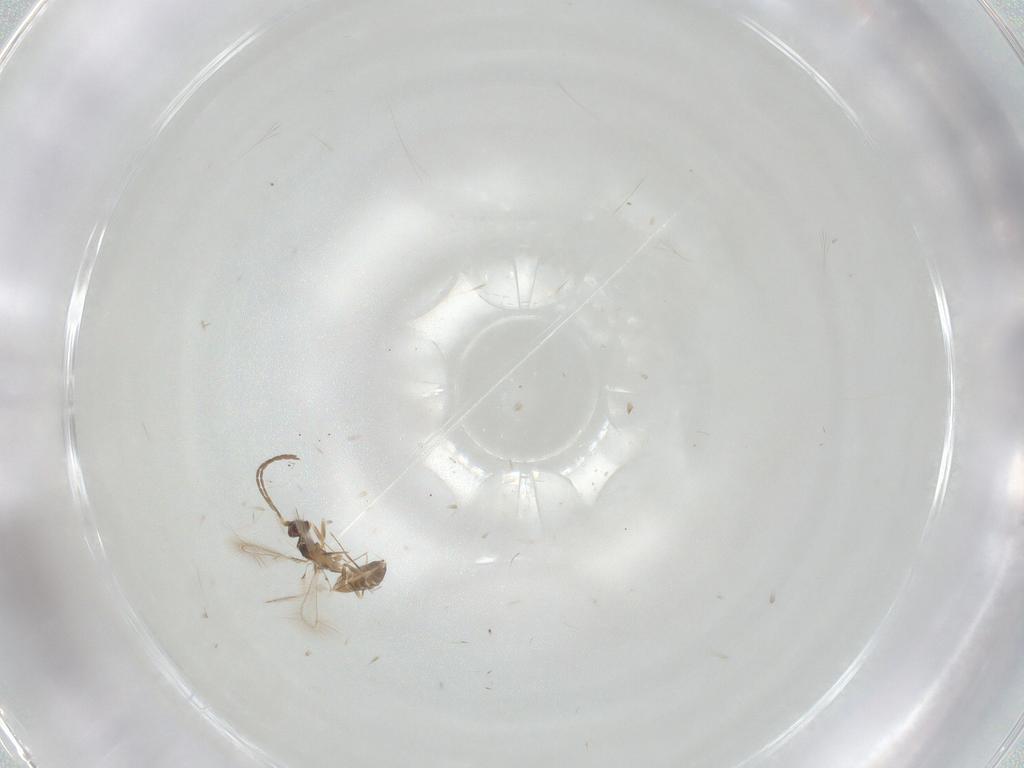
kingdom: Animalia
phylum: Arthropoda
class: Insecta
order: Hymenoptera
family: Mymaridae
